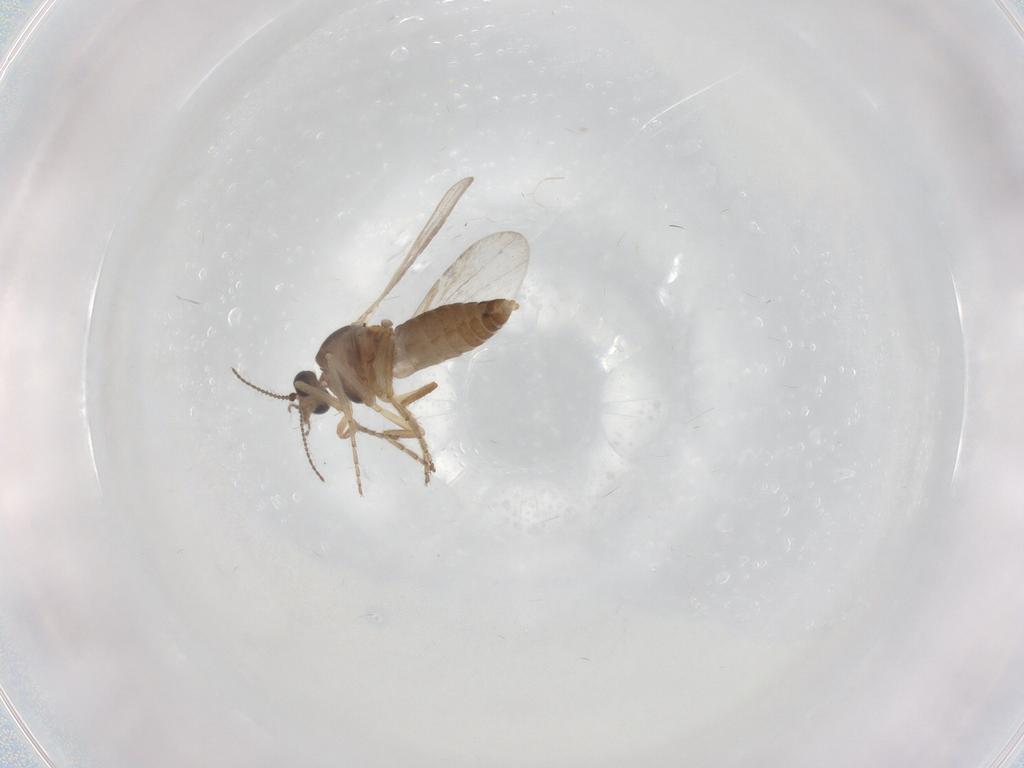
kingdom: Animalia
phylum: Arthropoda
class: Insecta
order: Diptera
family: Ceratopogonidae
